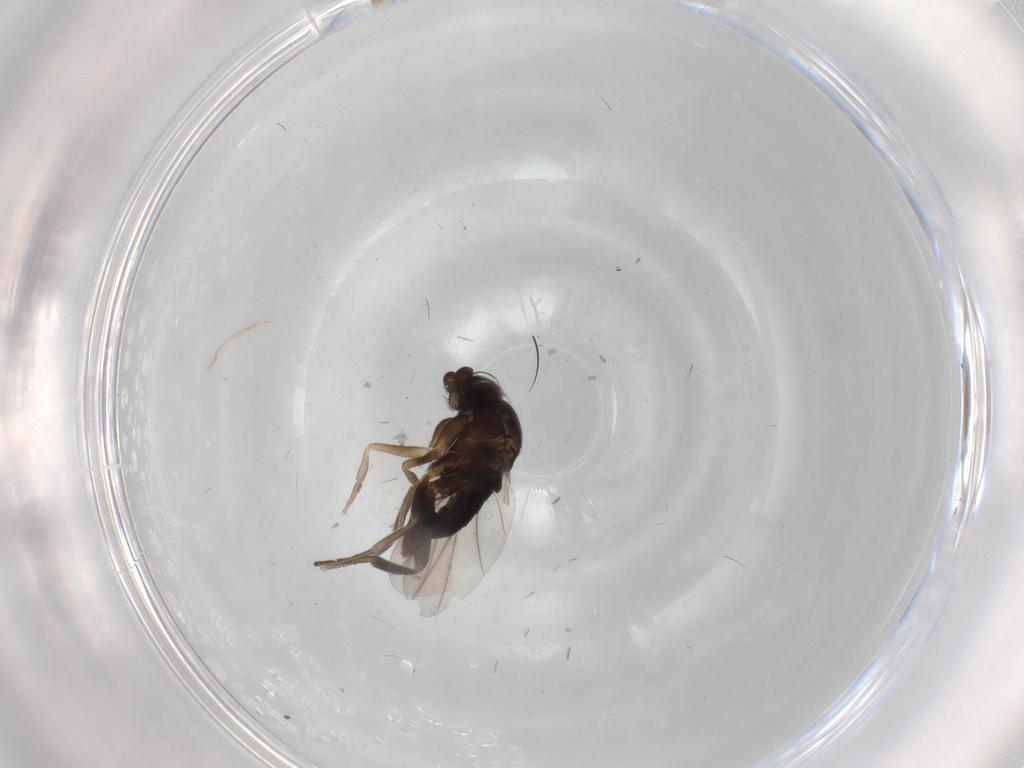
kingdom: Animalia
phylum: Arthropoda
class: Insecta
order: Diptera
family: Cecidomyiidae
